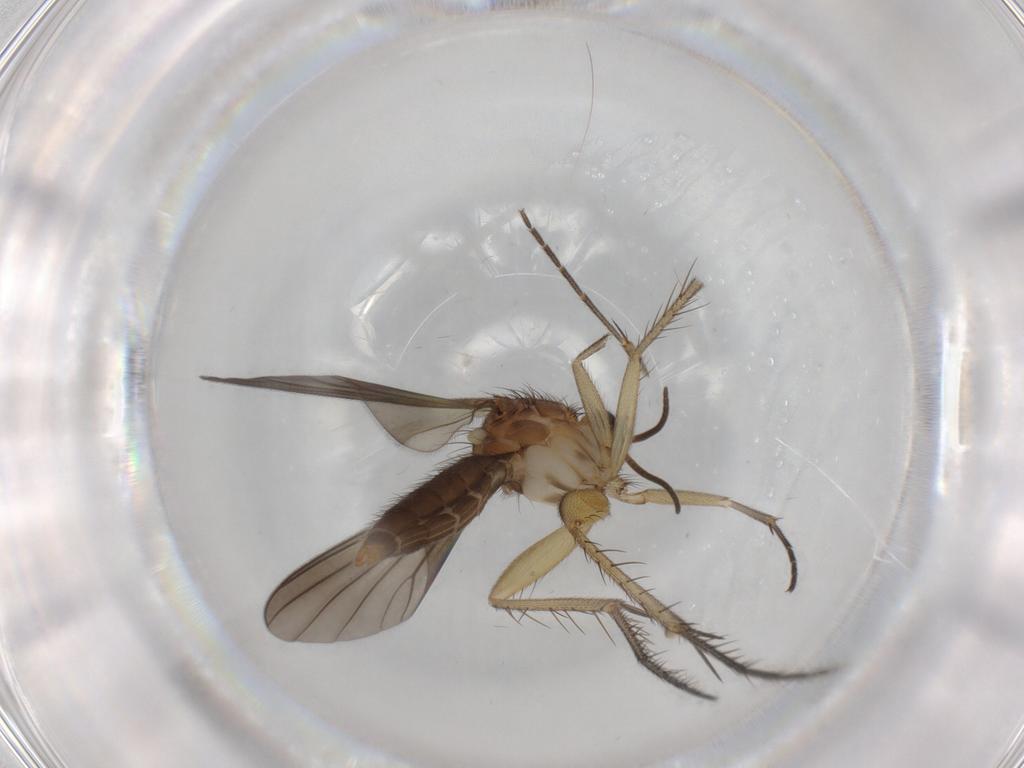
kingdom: Animalia
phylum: Arthropoda
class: Insecta
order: Diptera
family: Mycetophilidae
